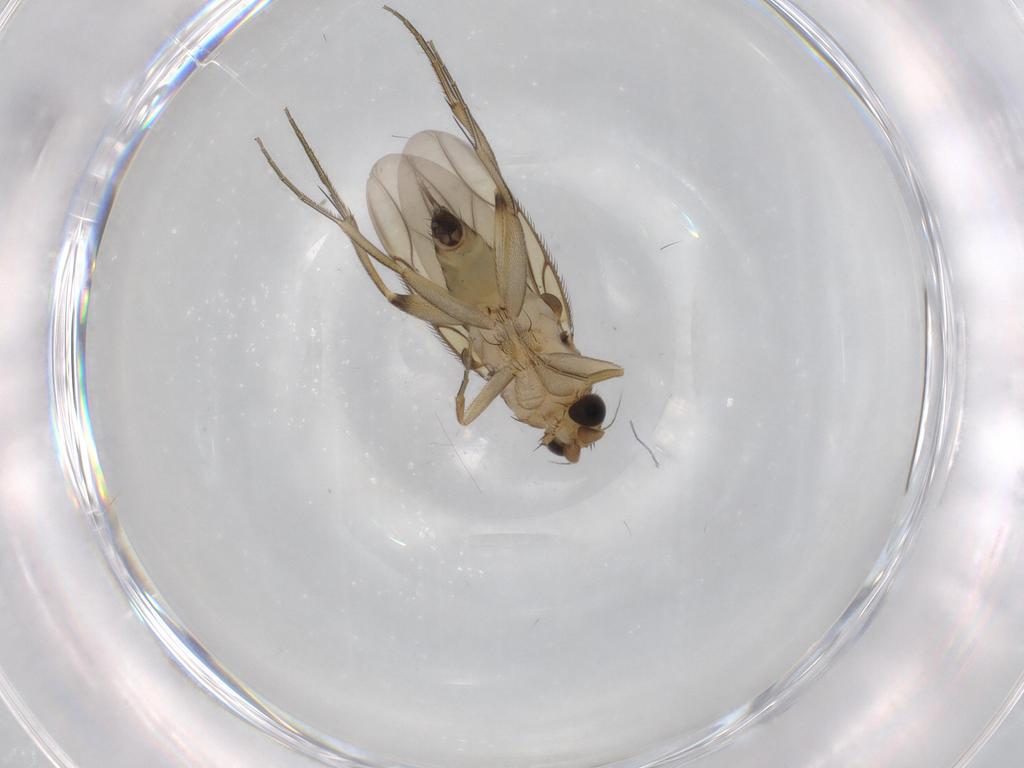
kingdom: Animalia
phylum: Arthropoda
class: Insecta
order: Diptera
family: Phoridae
